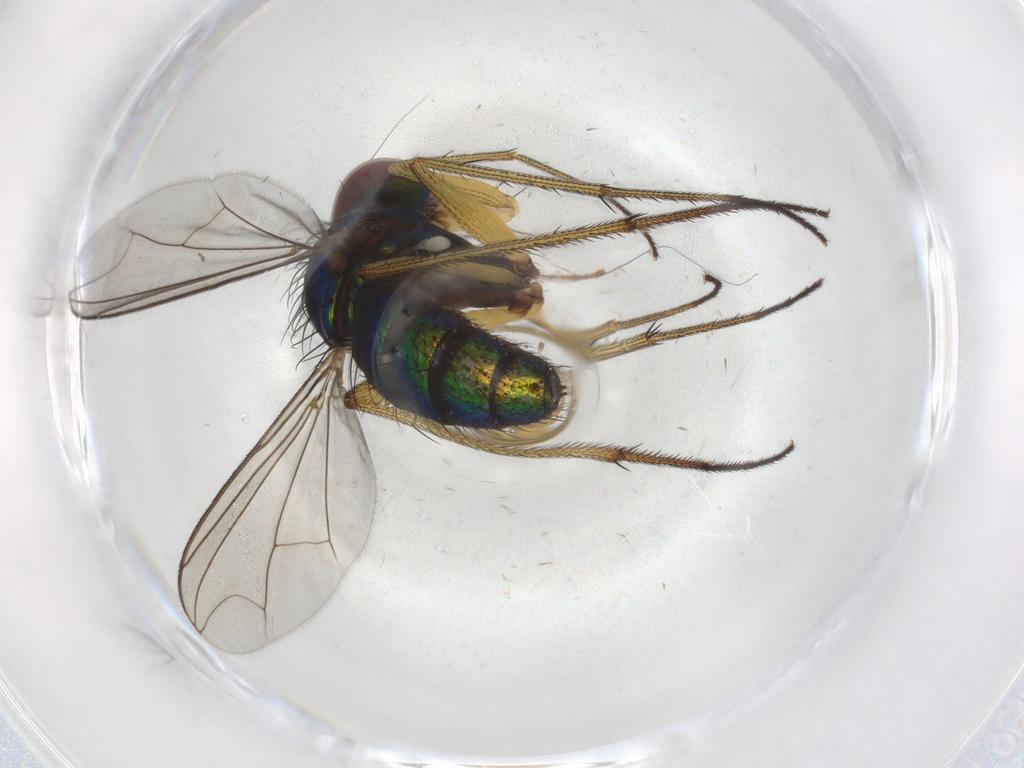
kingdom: Animalia
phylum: Arthropoda
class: Insecta
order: Diptera
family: Dolichopodidae
